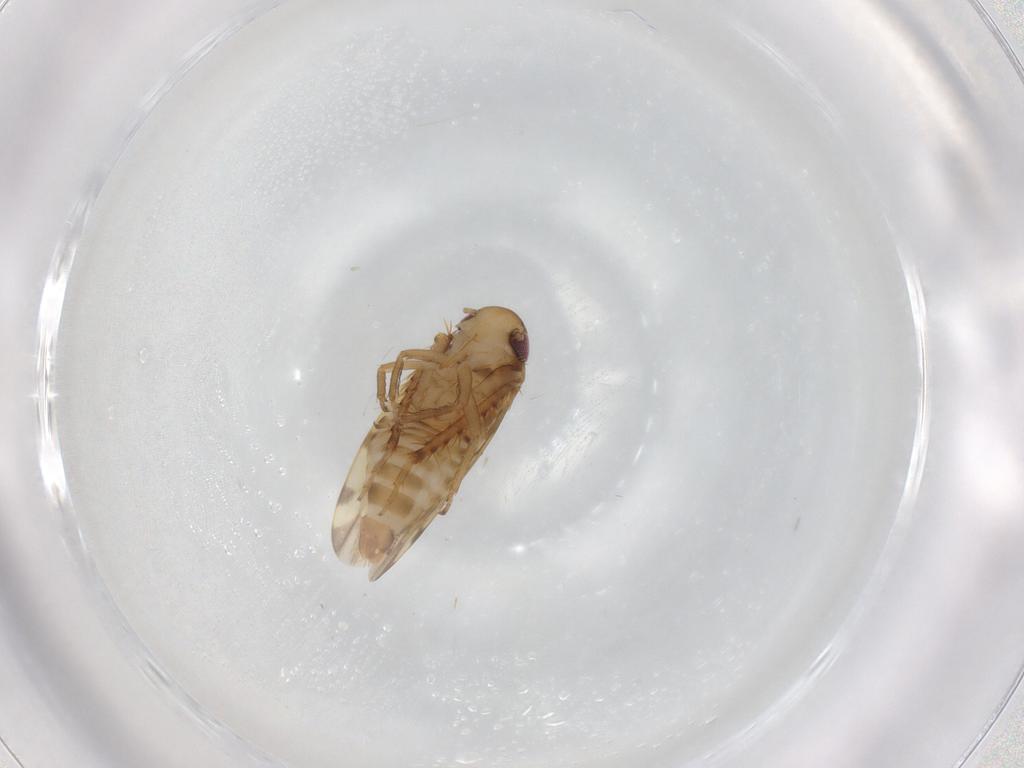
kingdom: Animalia
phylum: Arthropoda
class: Insecta
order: Hemiptera
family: Cicadellidae
